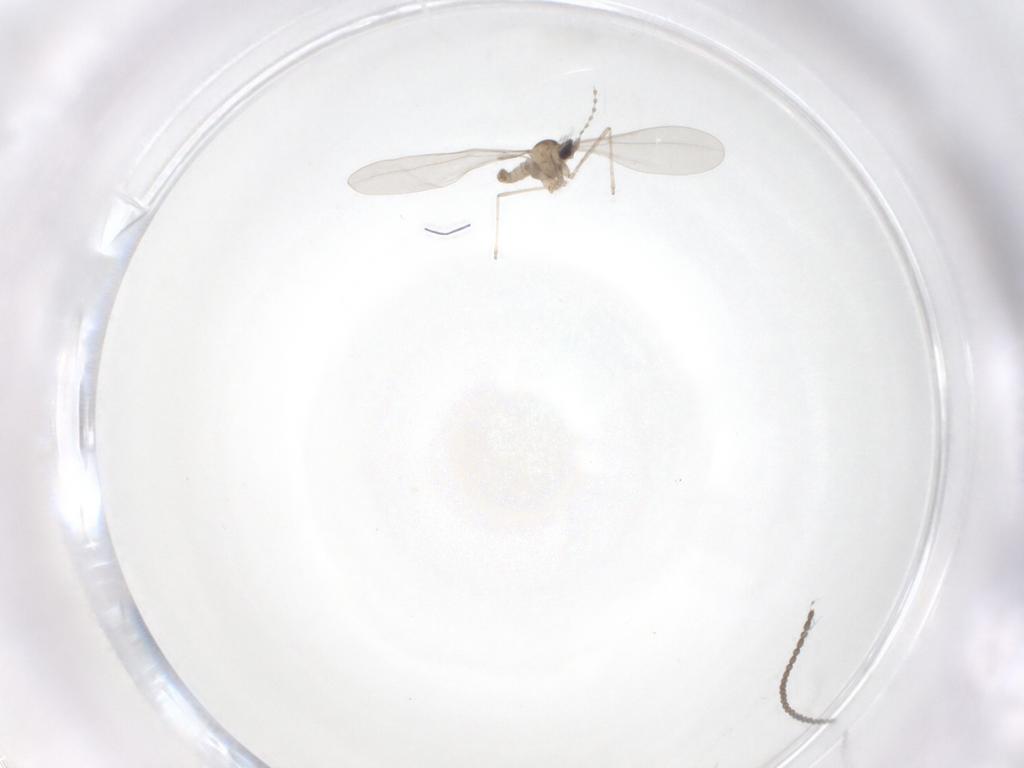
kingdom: Animalia
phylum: Arthropoda
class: Insecta
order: Diptera
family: Cecidomyiidae
